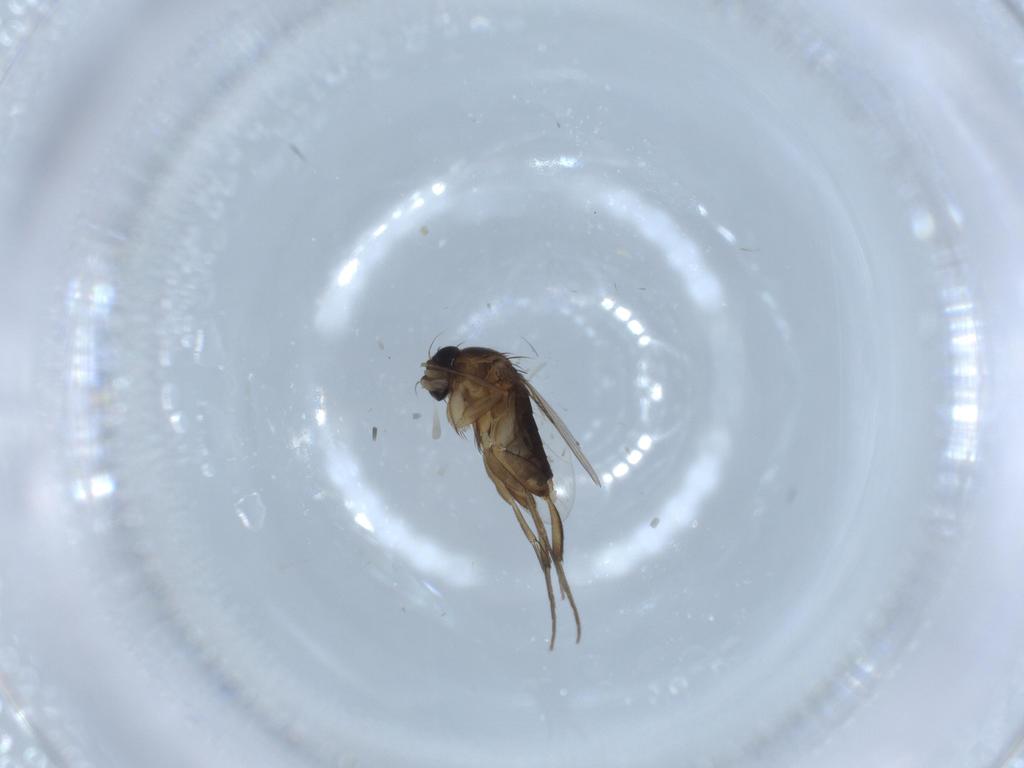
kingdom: Animalia
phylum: Arthropoda
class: Insecta
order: Diptera
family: Phoridae
